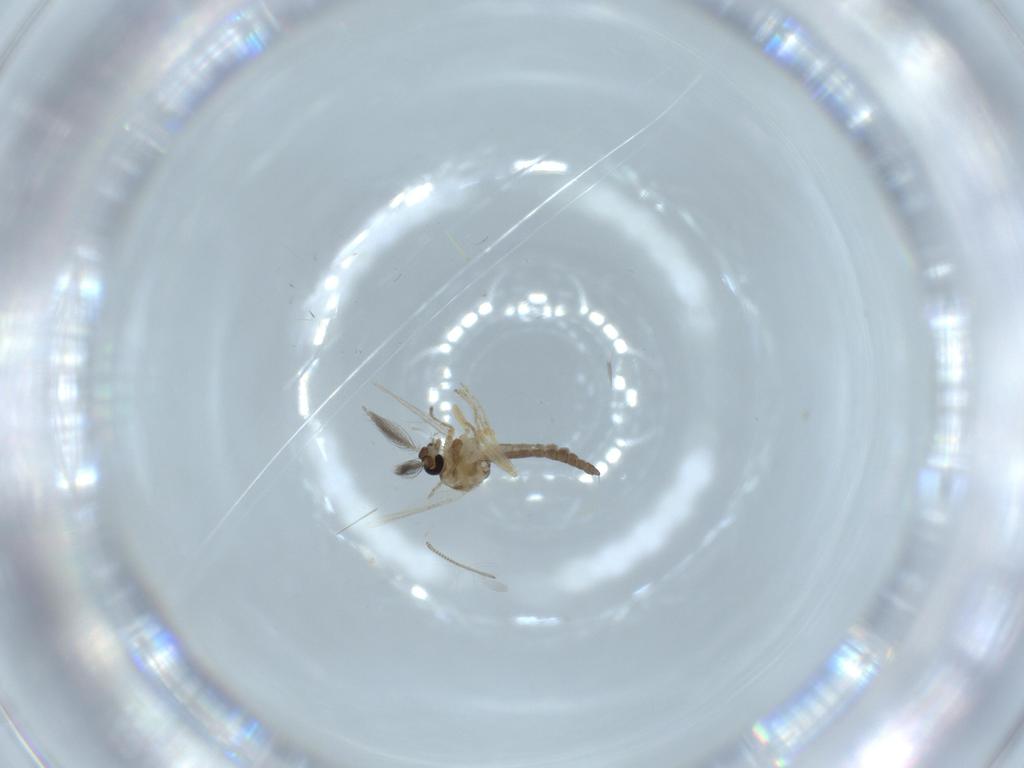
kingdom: Animalia
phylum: Arthropoda
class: Insecta
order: Diptera
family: Ceratopogonidae
